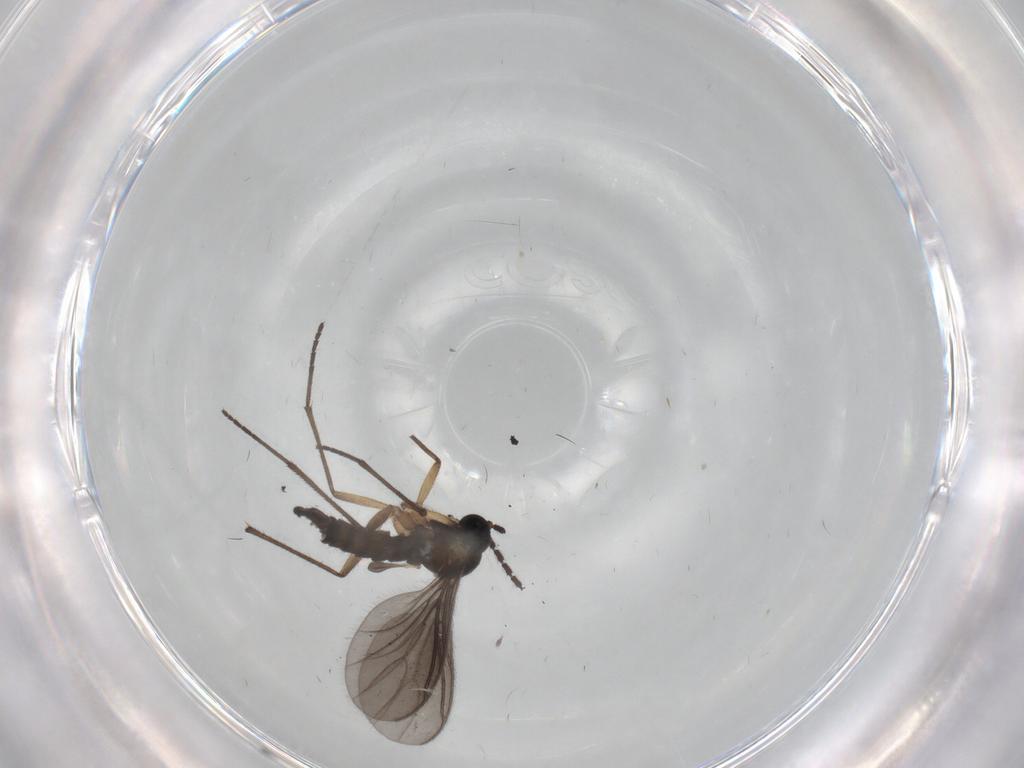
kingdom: Animalia
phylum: Arthropoda
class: Insecta
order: Diptera
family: Sciaridae
